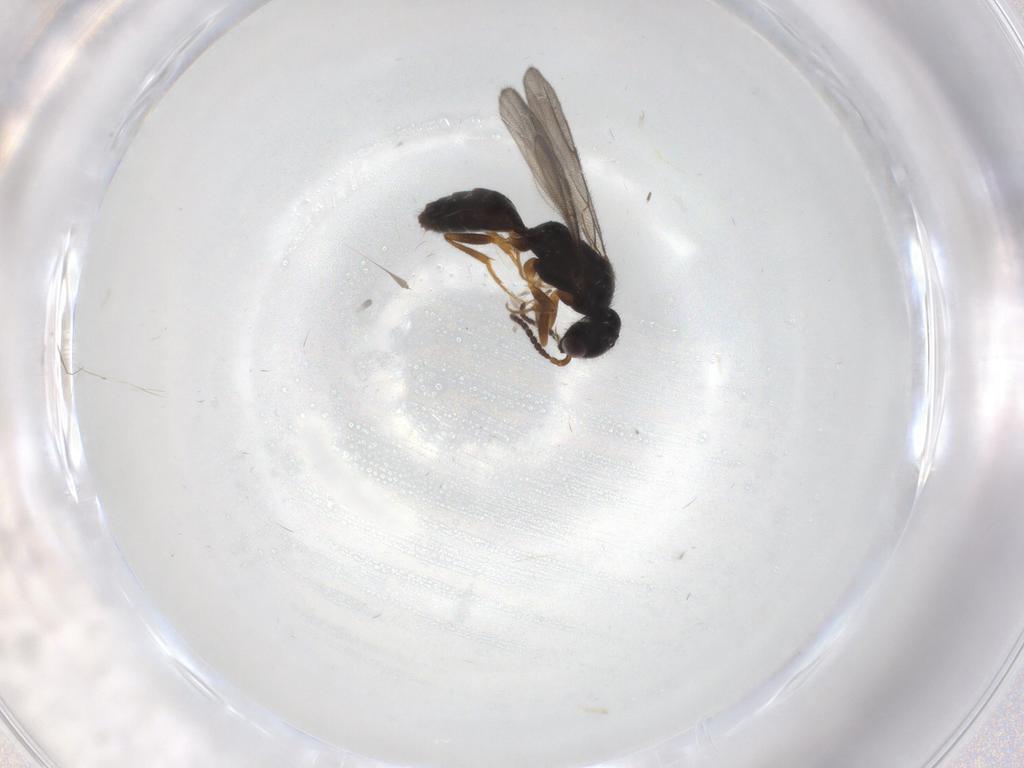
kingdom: Animalia
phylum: Arthropoda
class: Insecta
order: Hymenoptera
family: Bethylidae
